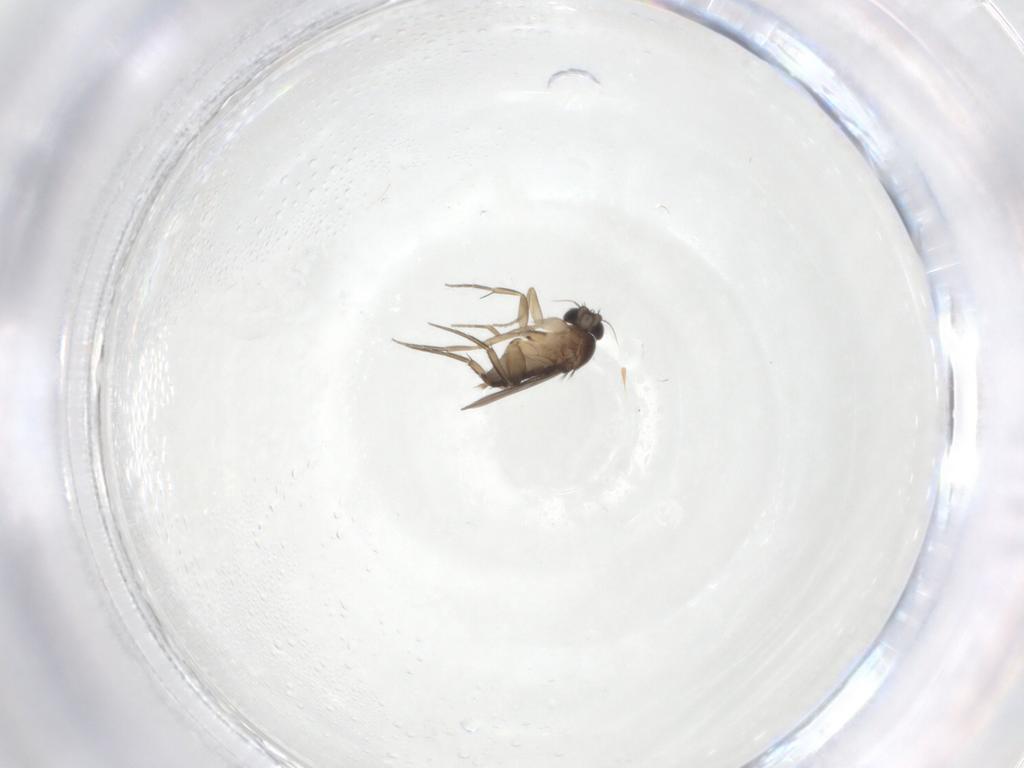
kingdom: Animalia
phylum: Arthropoda
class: Insecta
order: Diptera
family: Phoridae
